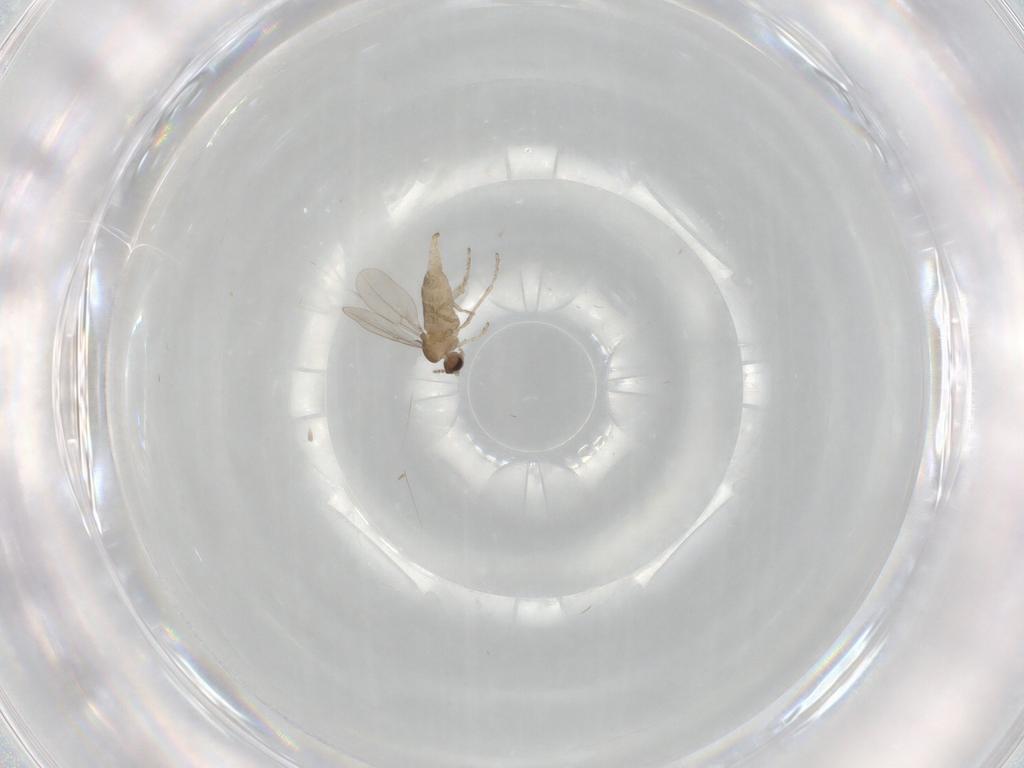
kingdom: Animalia
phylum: Arthropoda
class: Insecta
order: Diptera
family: Cecidomyiidae
